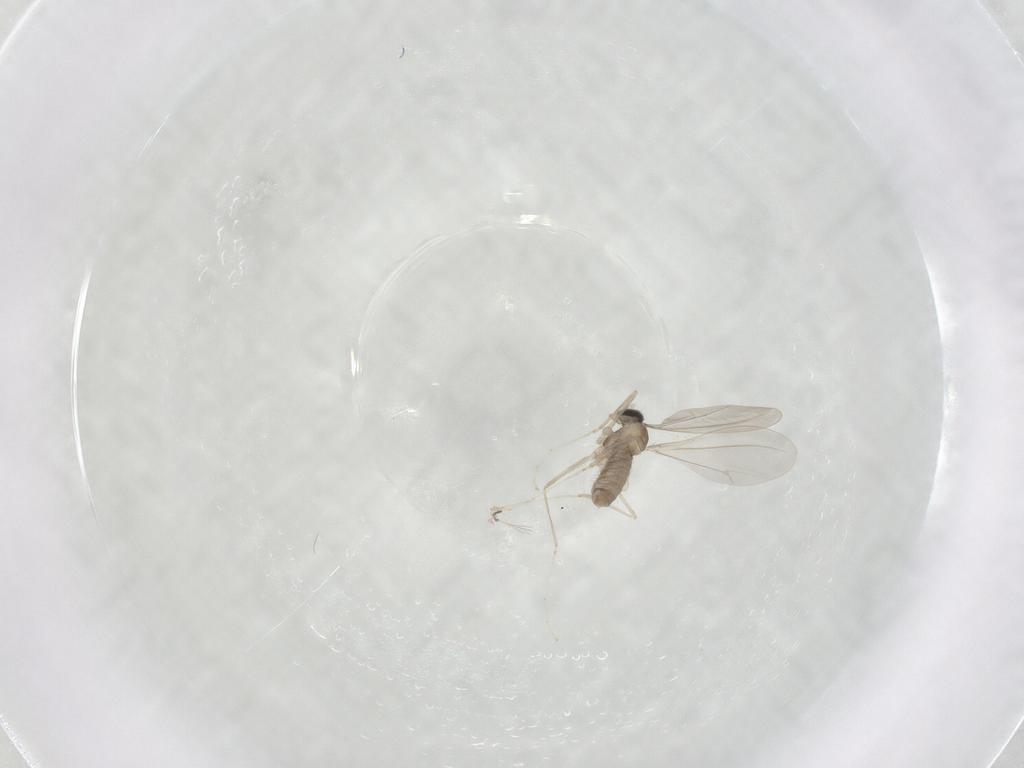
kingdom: Animalia
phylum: Arthropoda
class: Insecta
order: Diptera
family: Cecidomyiidae
